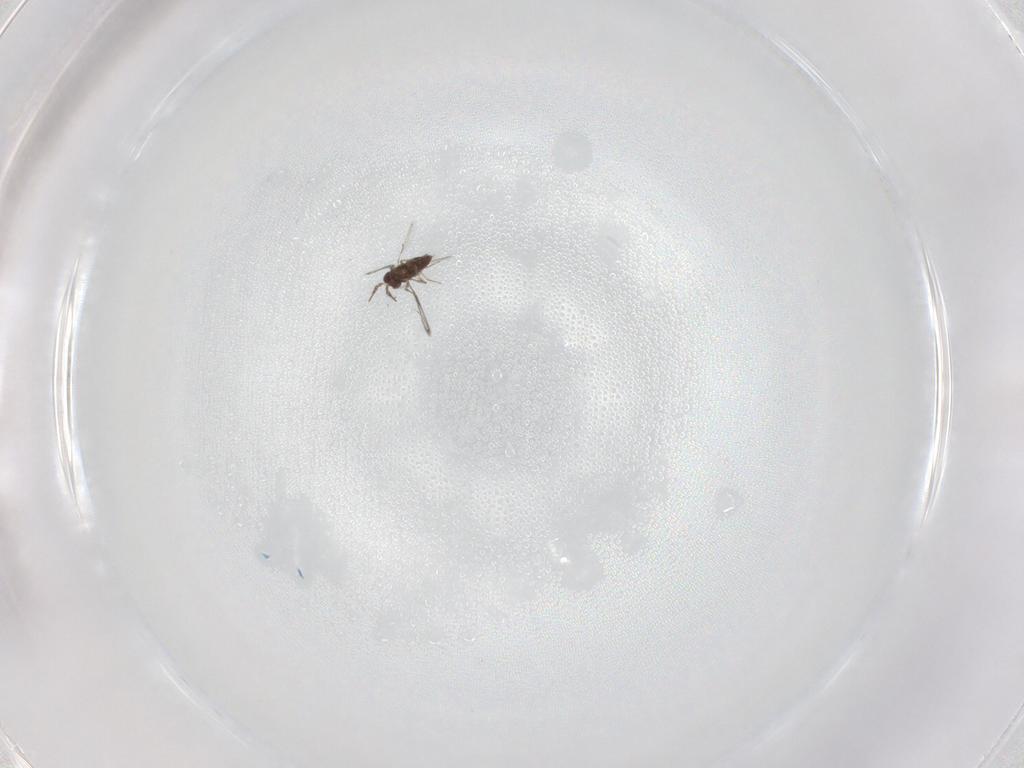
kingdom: Animalia
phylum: Arthropoda
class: Insecta
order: Hymenoptera
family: Trichogrammatidae
